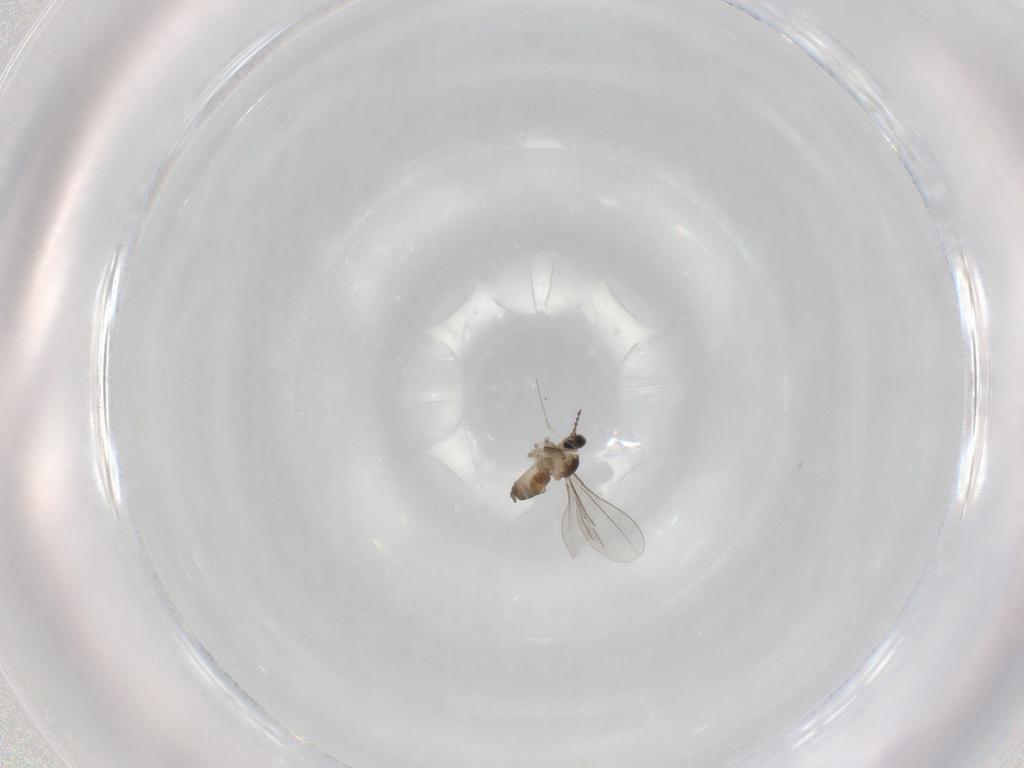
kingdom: Animalia
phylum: Arthropoda
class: Insecta
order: Diptera
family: Cecidomyiidae
